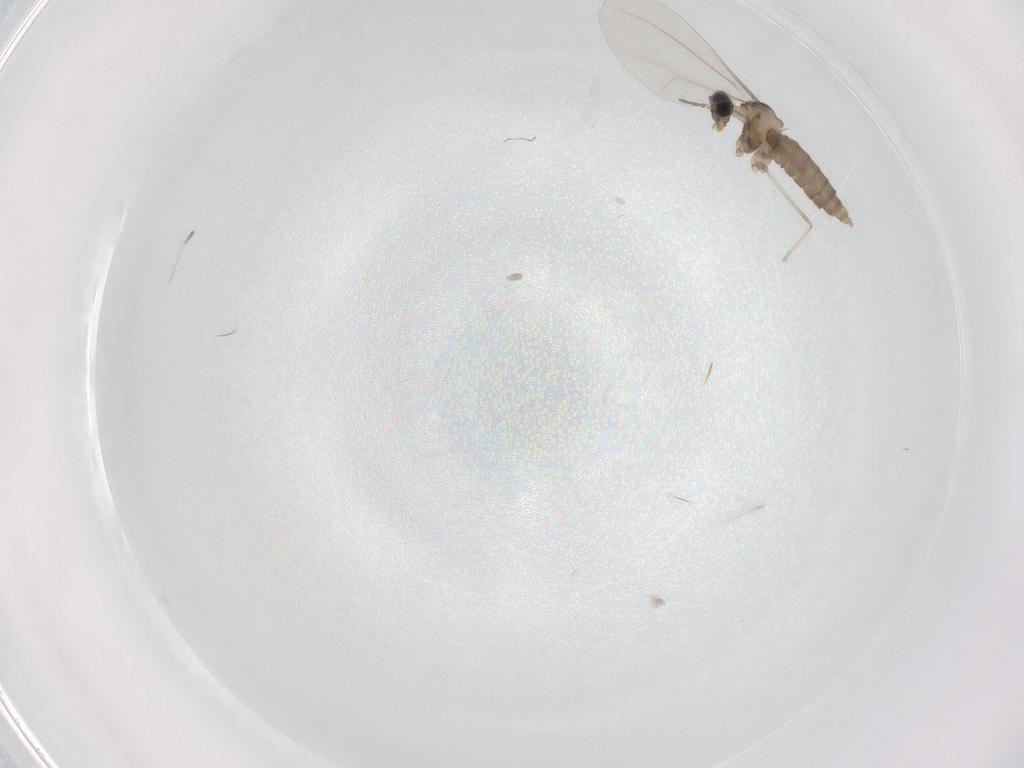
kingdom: Animalia
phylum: Arthropoda
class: Insecta
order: Diptera
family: Cecidomyiidae
